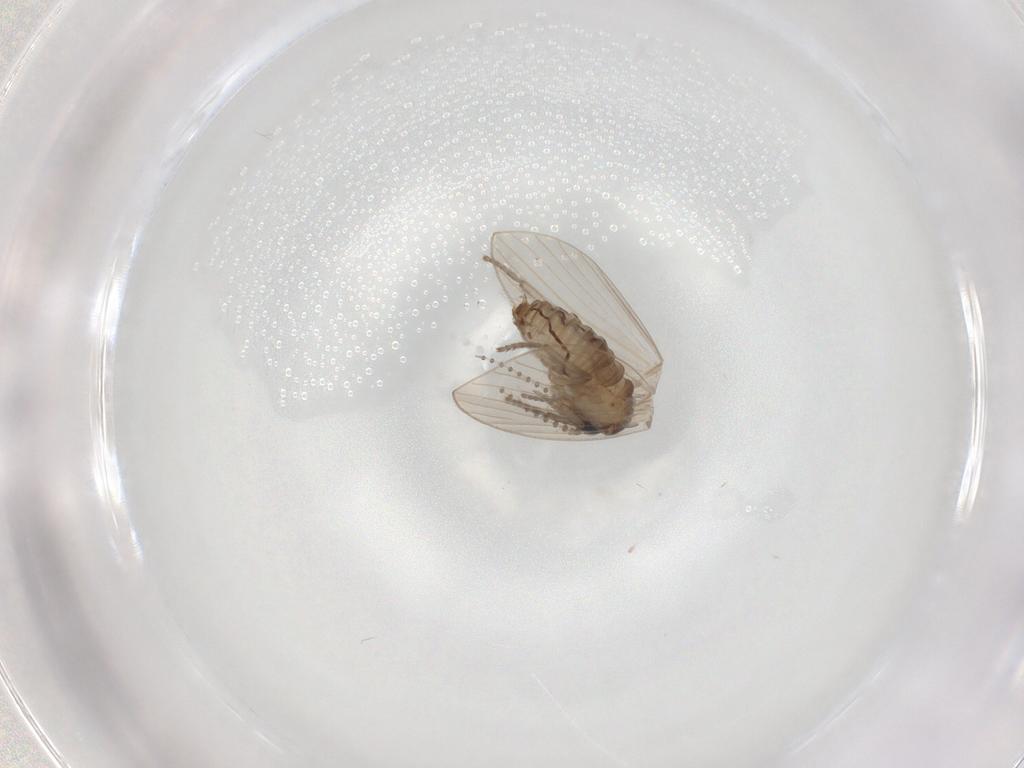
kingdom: Animalia
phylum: Arthropoda
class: Insecta
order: Diptera
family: Psychodidae
